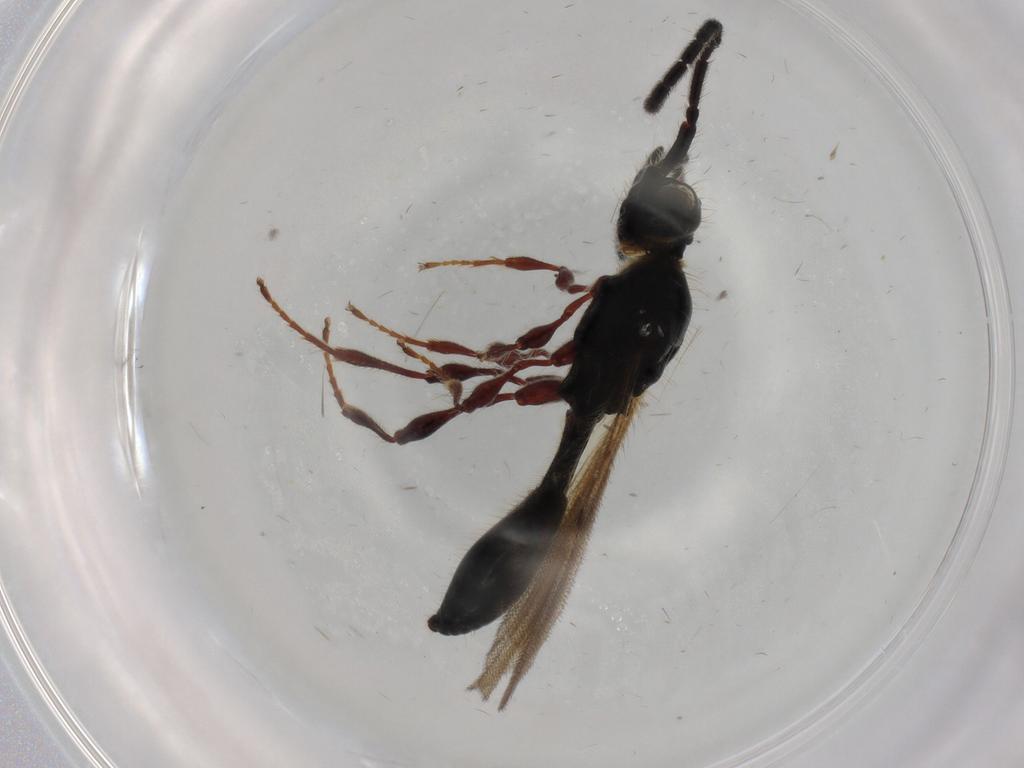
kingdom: Animalia
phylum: Arthropoda
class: Insecta
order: Hymenoptera
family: Diapriidae
